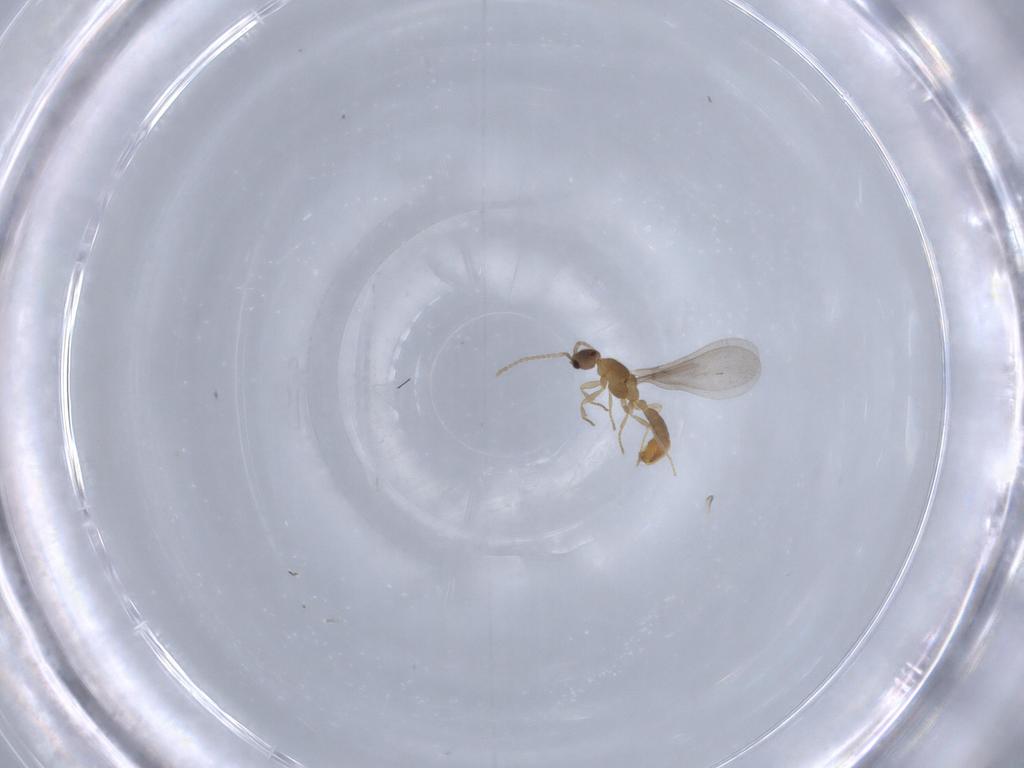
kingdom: Animalia
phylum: Arthropoda
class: Insecta
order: Hymenoptera
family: Formicidae
